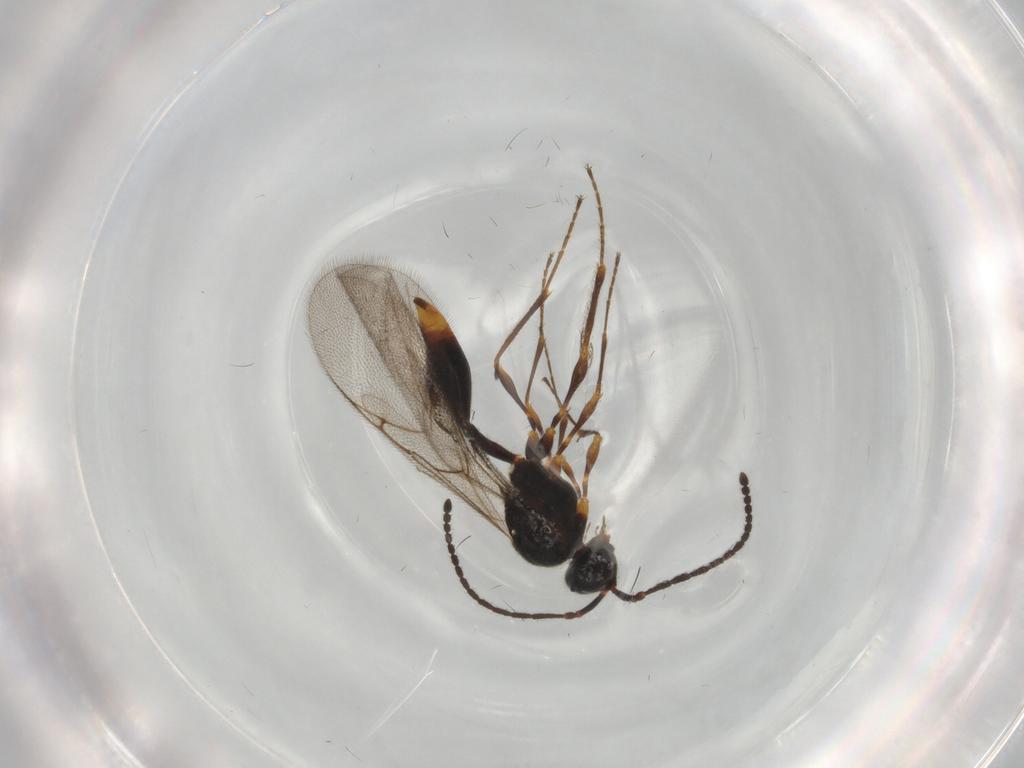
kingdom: Animalia
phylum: Arthropoda
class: Insecta
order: Hymenoptera
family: Diapriidae
